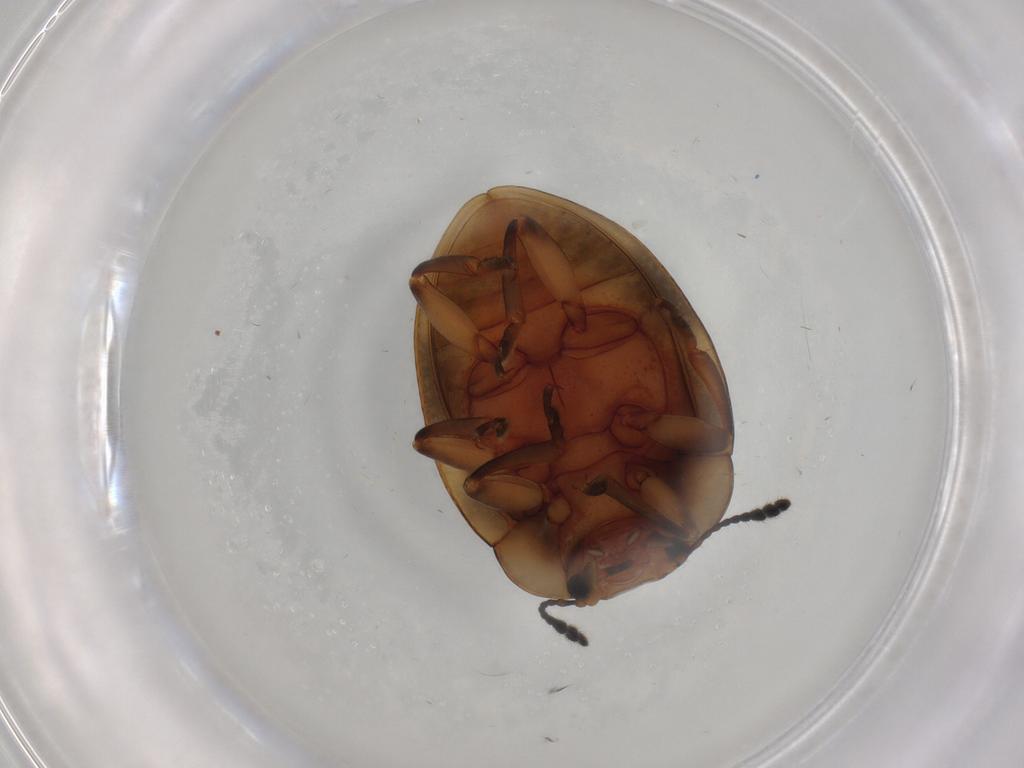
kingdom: Animalia
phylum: Arthropoda
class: Insecta
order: Coleoptera
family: Erotylidae
